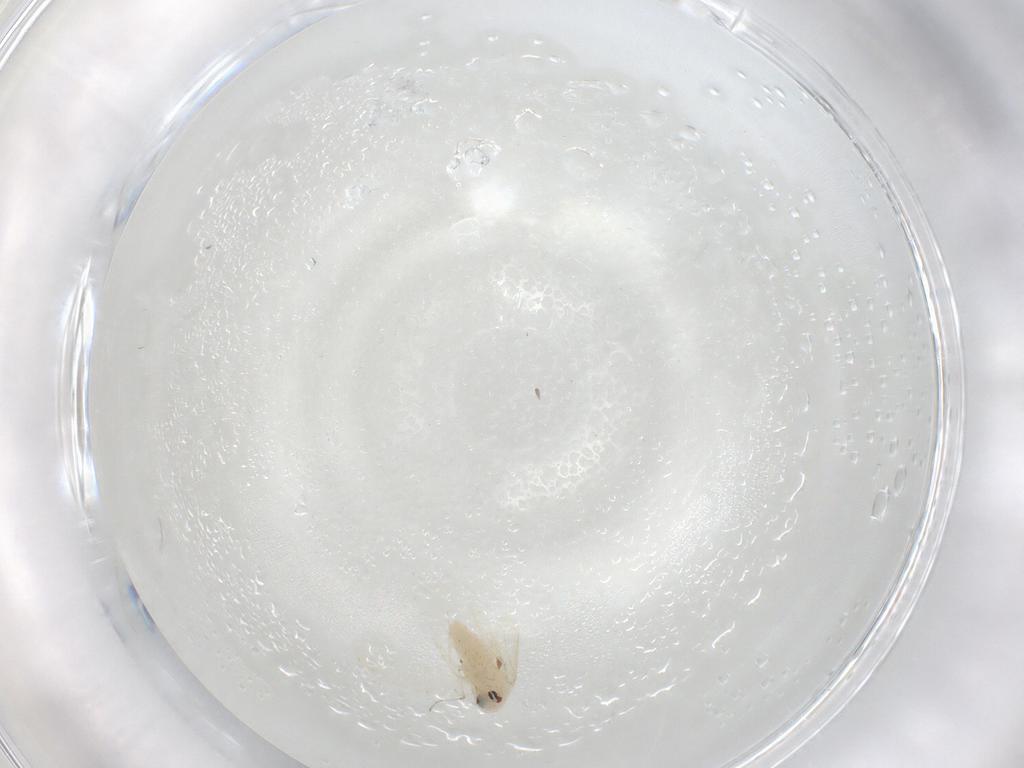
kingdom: Animalia
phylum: Arthropoda
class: Insecta
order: Hemiptera
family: Aleyrodidae
